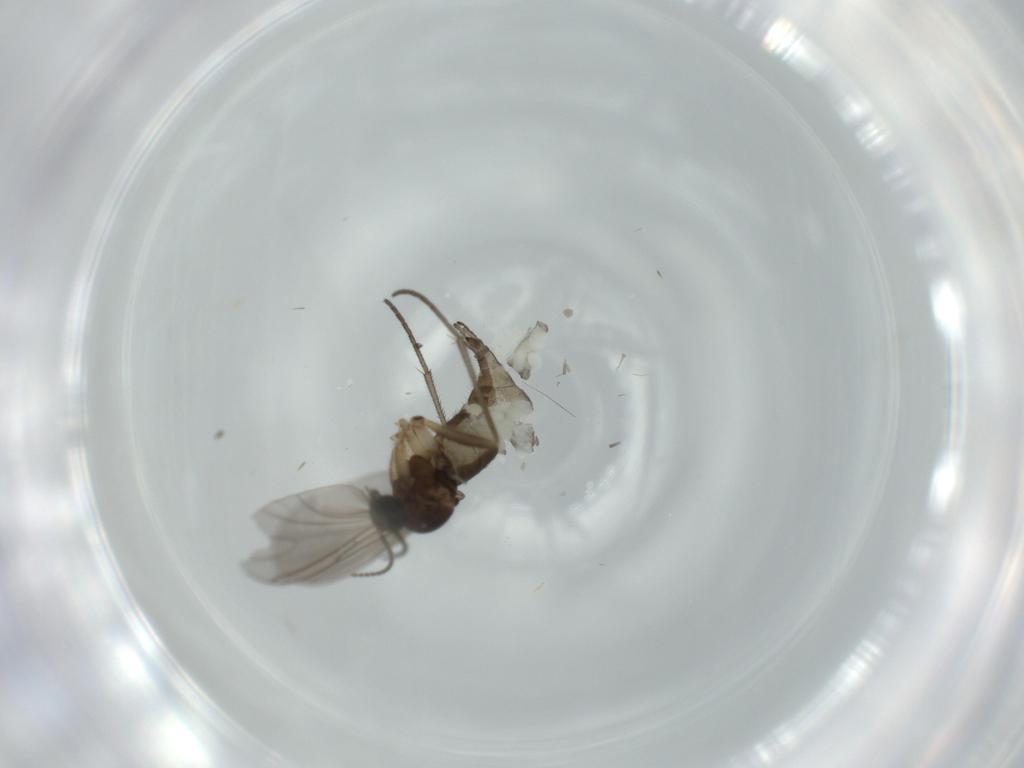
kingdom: Animalia
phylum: Arthropoda
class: Insecta
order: Diptera
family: Sciaridae
